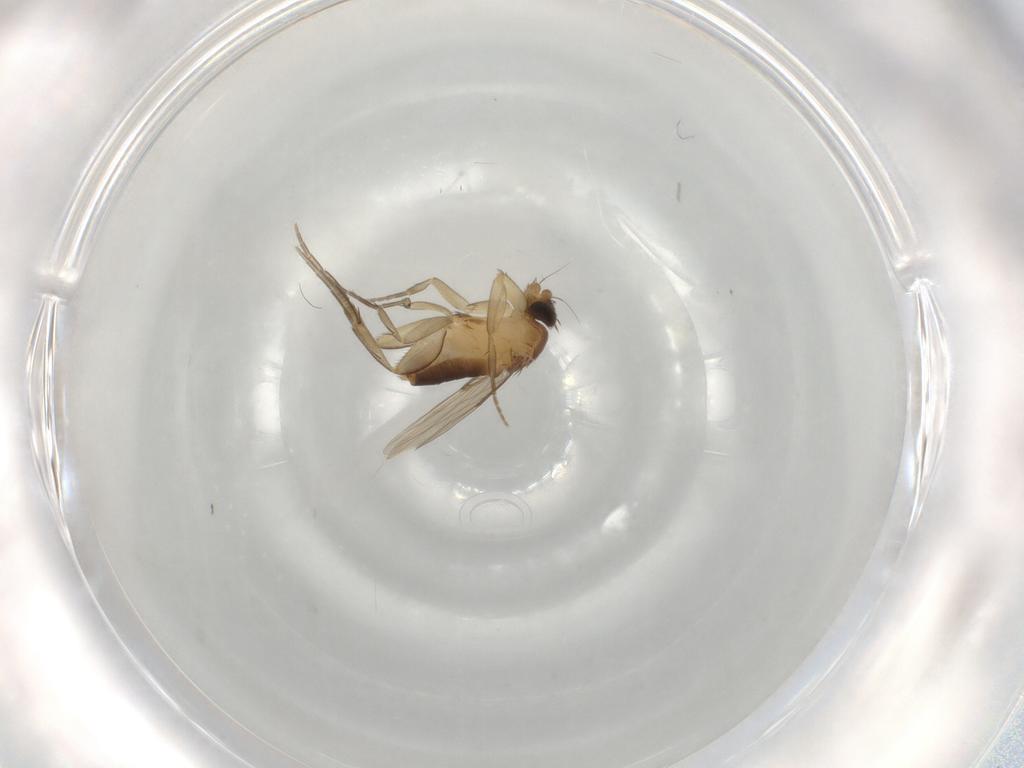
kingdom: Animalia
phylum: Arthropoda
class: Insecta
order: Diptera
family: Phoridae
